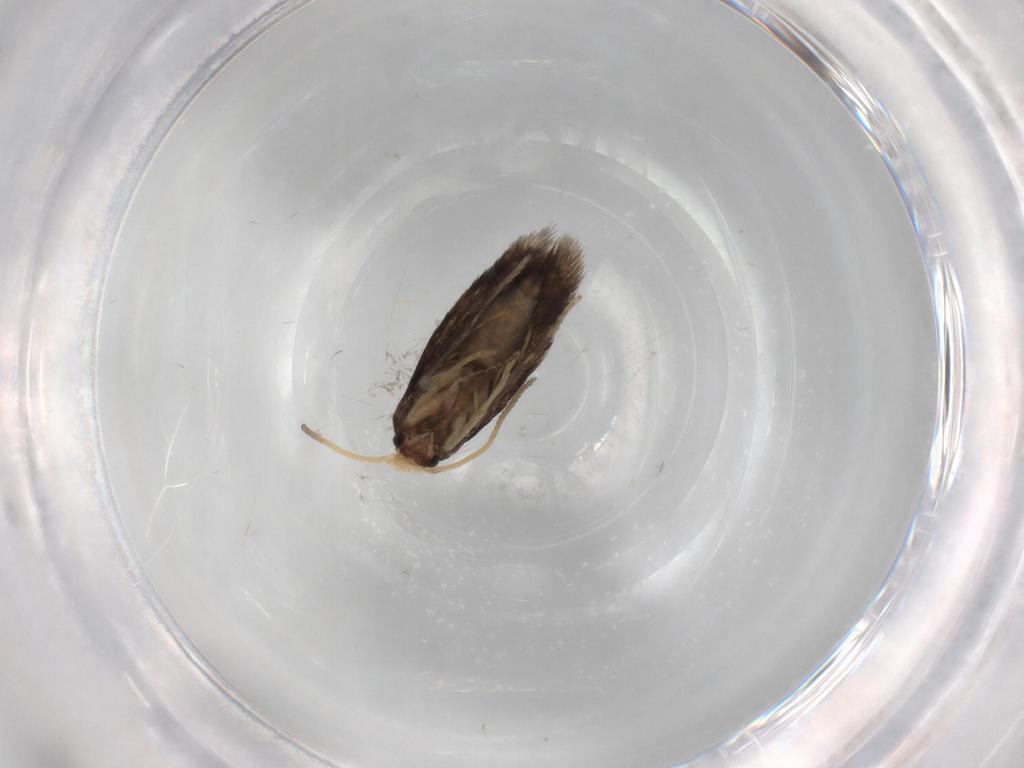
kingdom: Animalia
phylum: Arthropoda
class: Insecta
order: Lepidoptera
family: Nepticulidae
